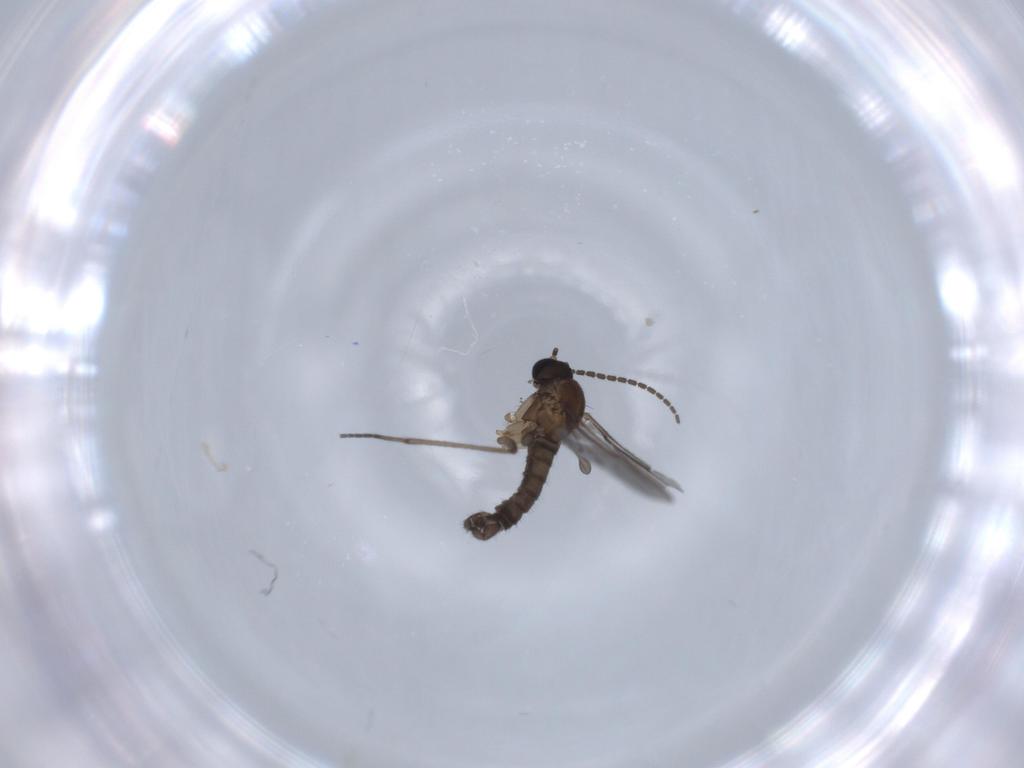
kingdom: Animalia
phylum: Arthropoda
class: Insecta
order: Diptera
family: Sciaridae
